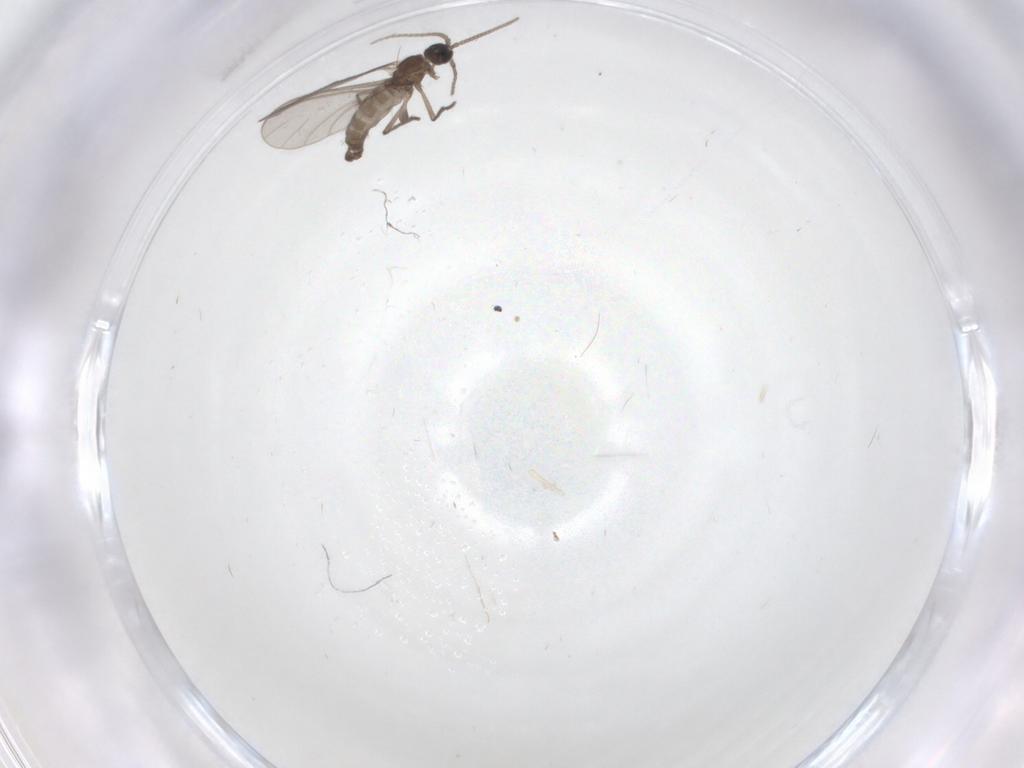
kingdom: Animalia
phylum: Arthropoda
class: Insecta
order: Diptera
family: Sciaridae
